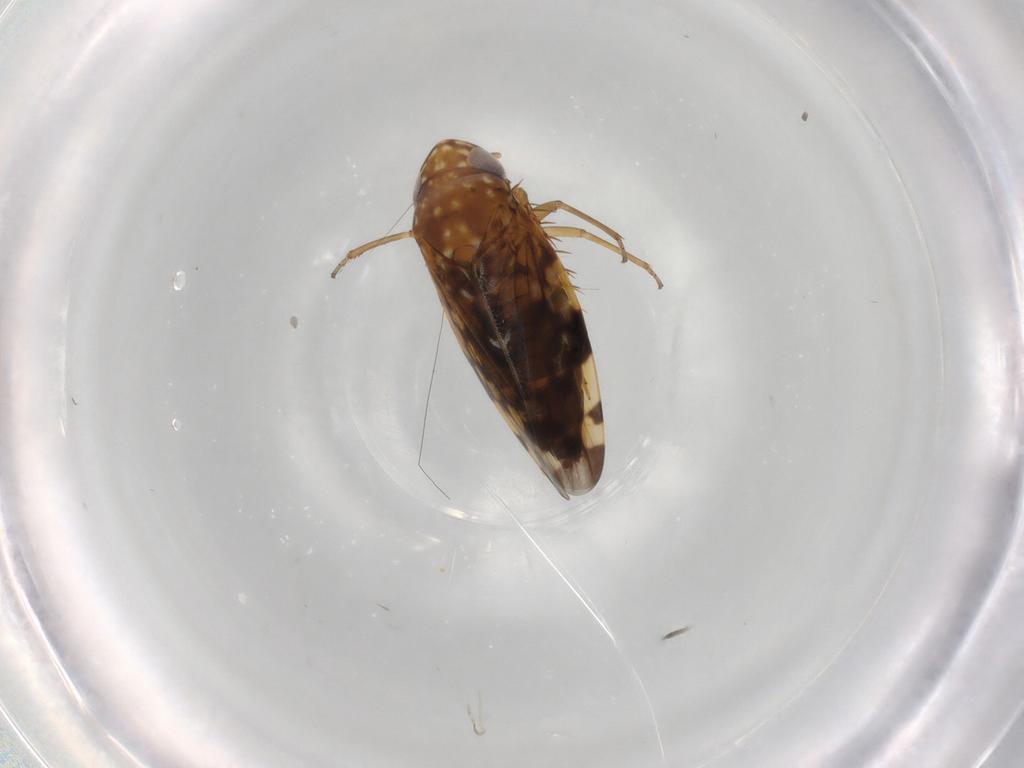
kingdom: Animalia
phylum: Arthropoda
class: Insecta
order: Hemiptera
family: Cicadellidae
